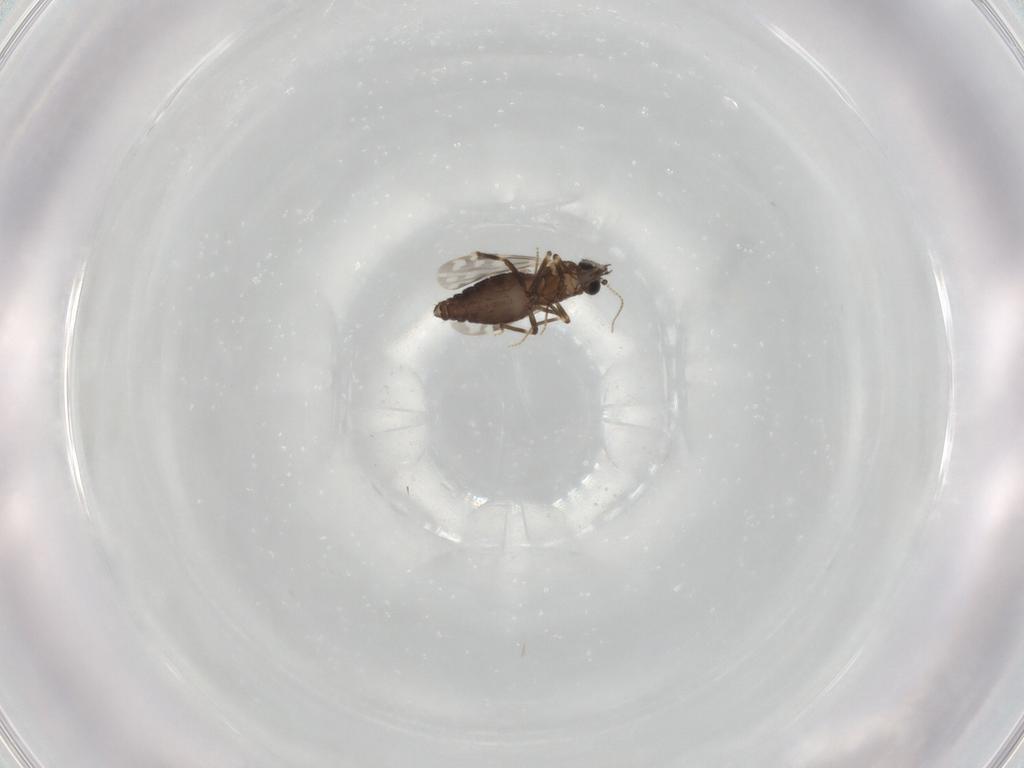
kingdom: Animalia
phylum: Arthropoda
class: Insecta
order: Diptera
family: Ceratopogonidae
